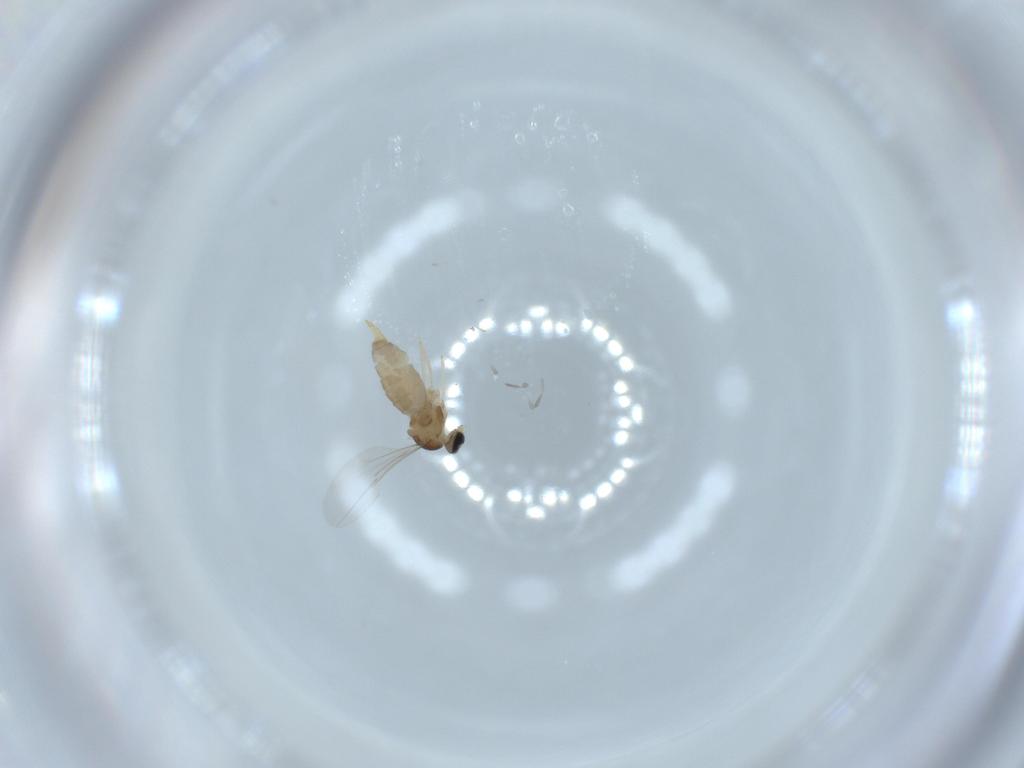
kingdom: Animalia
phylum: Arthropoda
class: Insecta
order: Diptera
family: Cecidomyiidae
